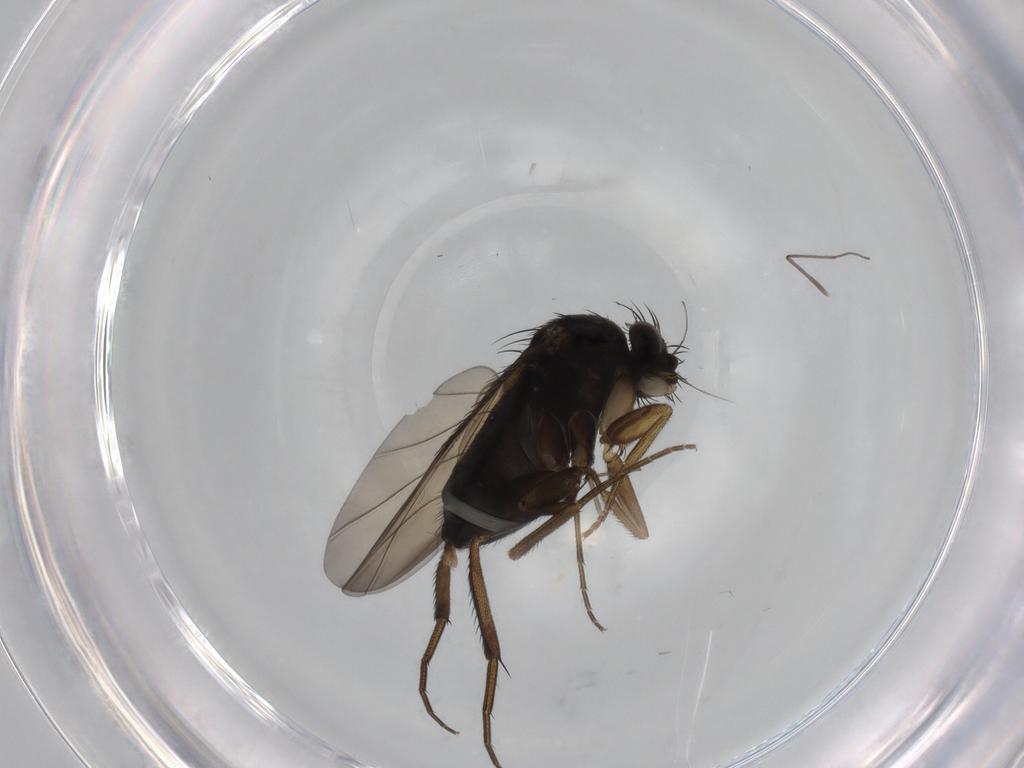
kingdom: Animalia
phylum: Arthropoda
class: Insecta
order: Diptera
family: Phoridae
